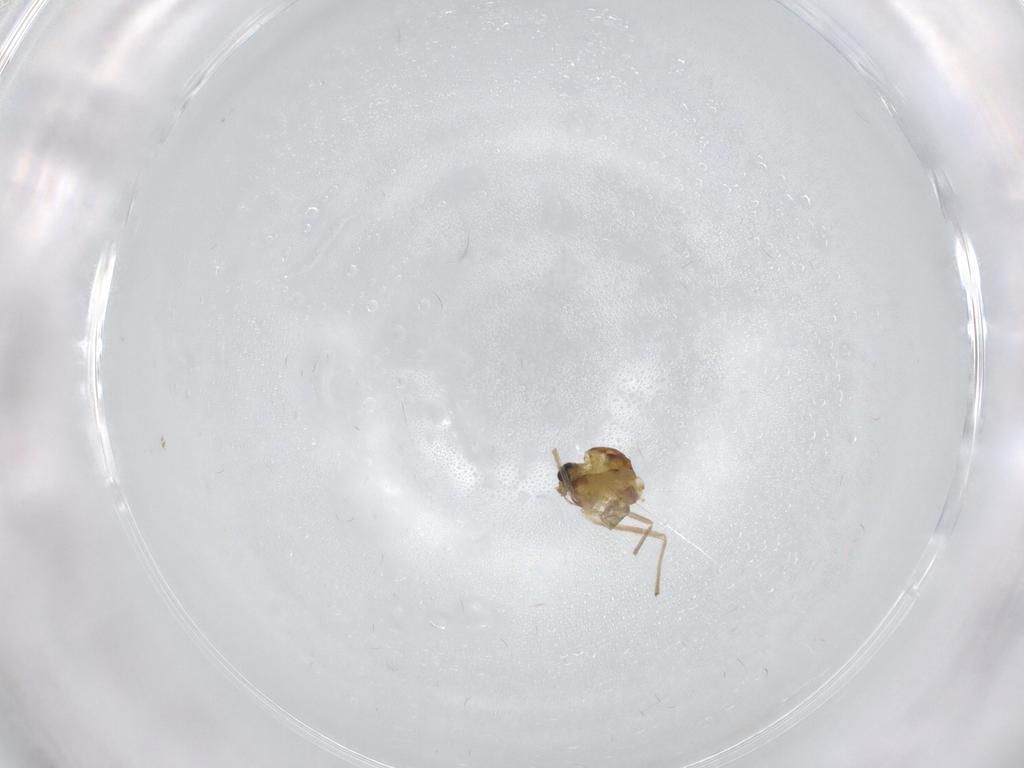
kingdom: Animalia
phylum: Arthropoda
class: Insecta
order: Diptera
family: Chironomidae
